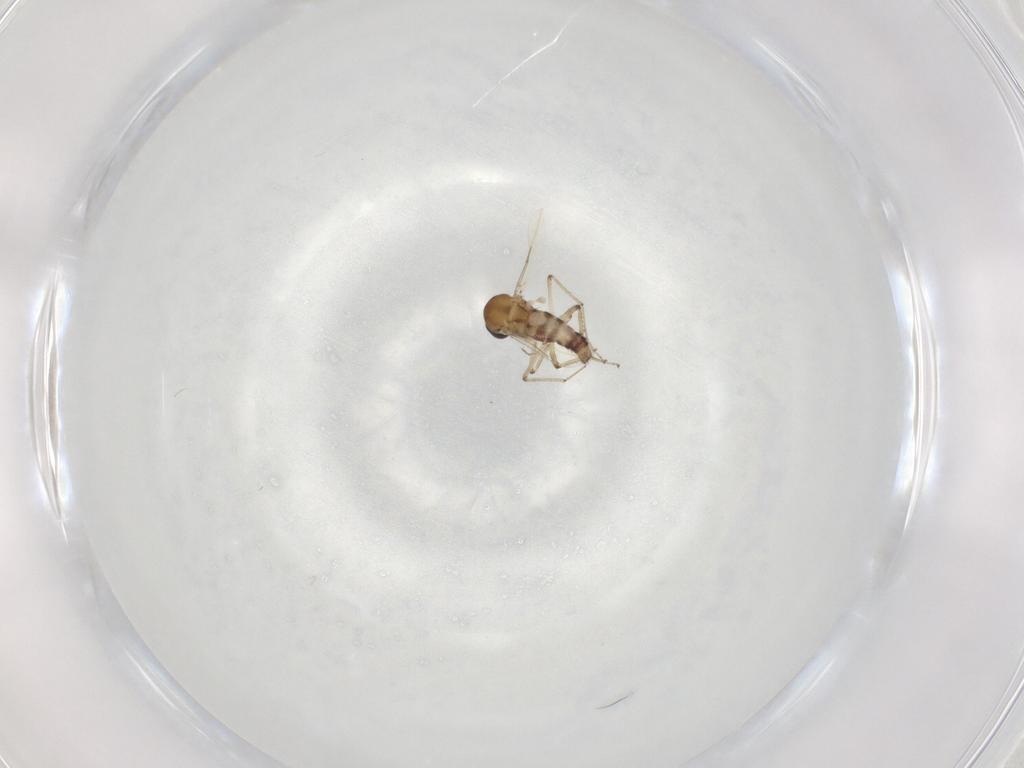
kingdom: Animalia
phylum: Arthropoda
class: Insecta
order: Diptera
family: Ceratopogonidae
